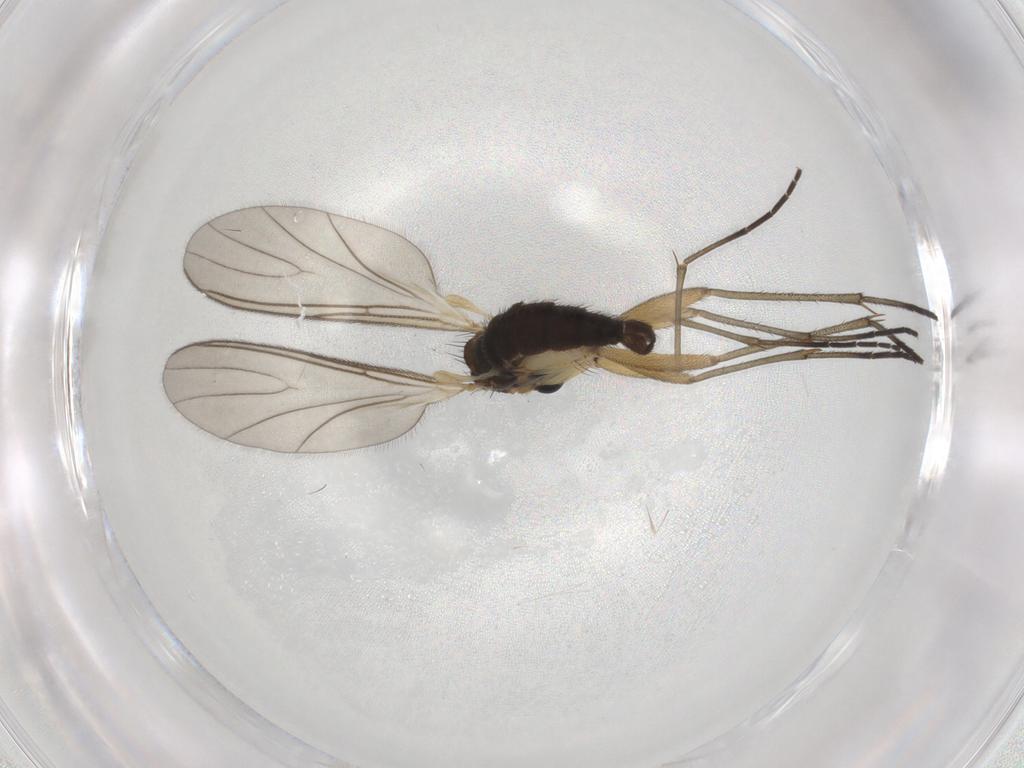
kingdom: Animalia
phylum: Arthropoda
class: Insecta
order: Diptera
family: Sciaridae
